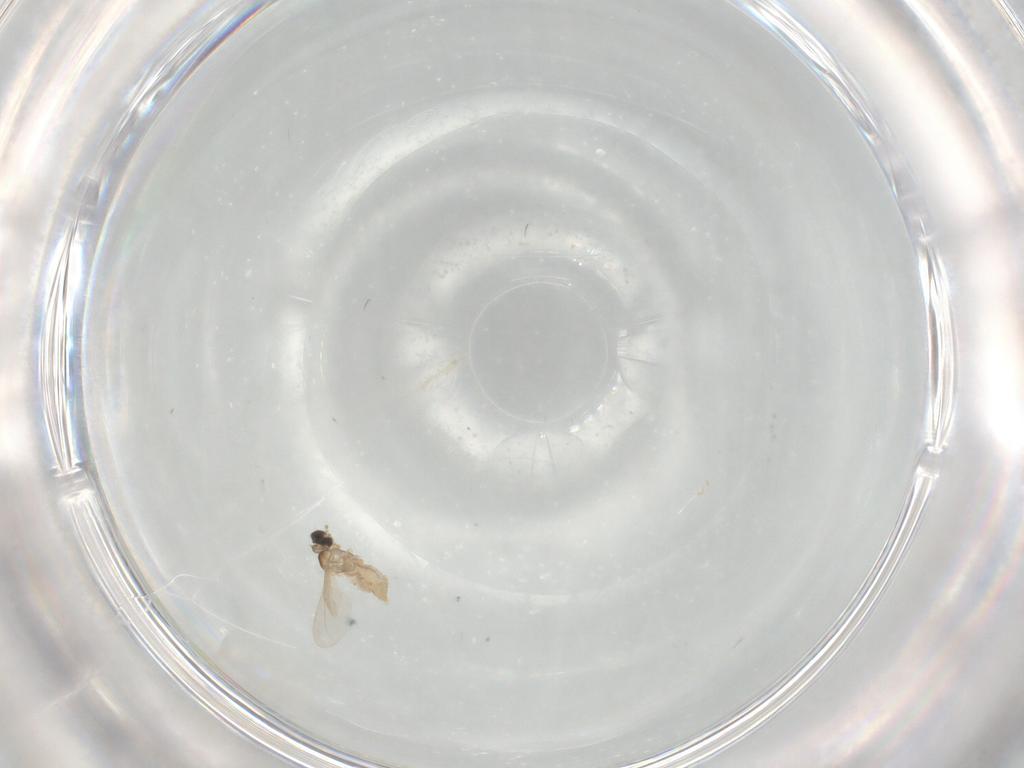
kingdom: Animalia
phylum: Arthropoda
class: Insecta
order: Diptera
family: Cecidomyiidae
